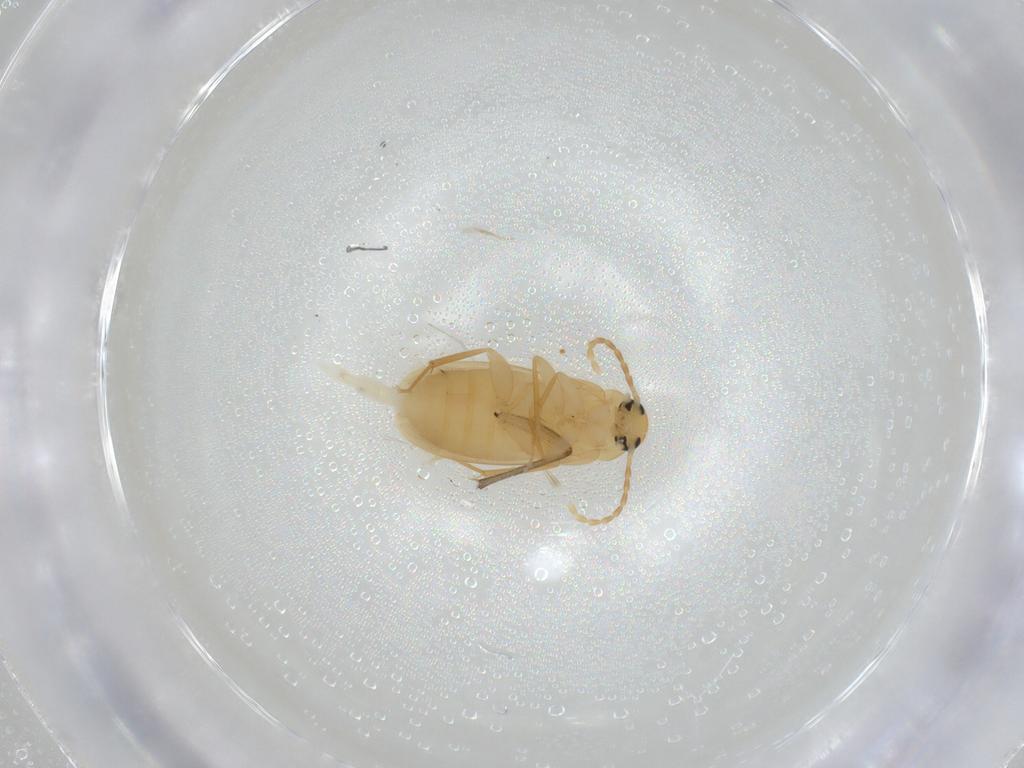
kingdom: Animalia
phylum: Arthropoda
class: Insecta
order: Coleoptera
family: Scraptiidae
